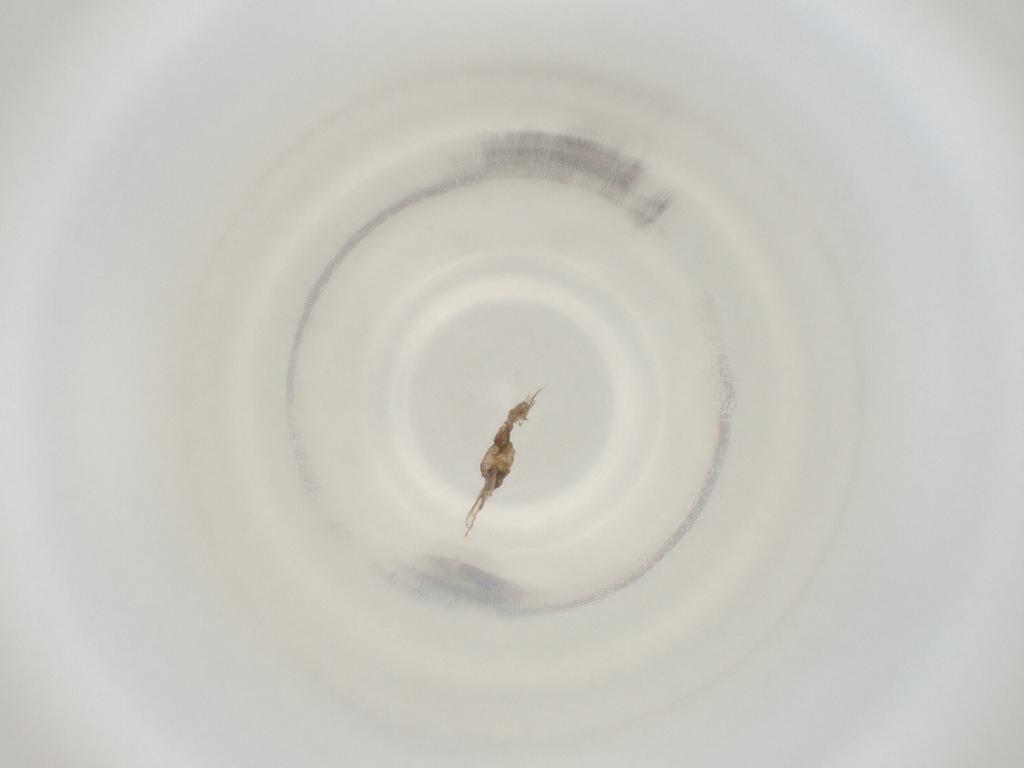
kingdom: Animalia
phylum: Arthropoda
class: Insecta
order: Diptera
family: Cecidomyiidae
